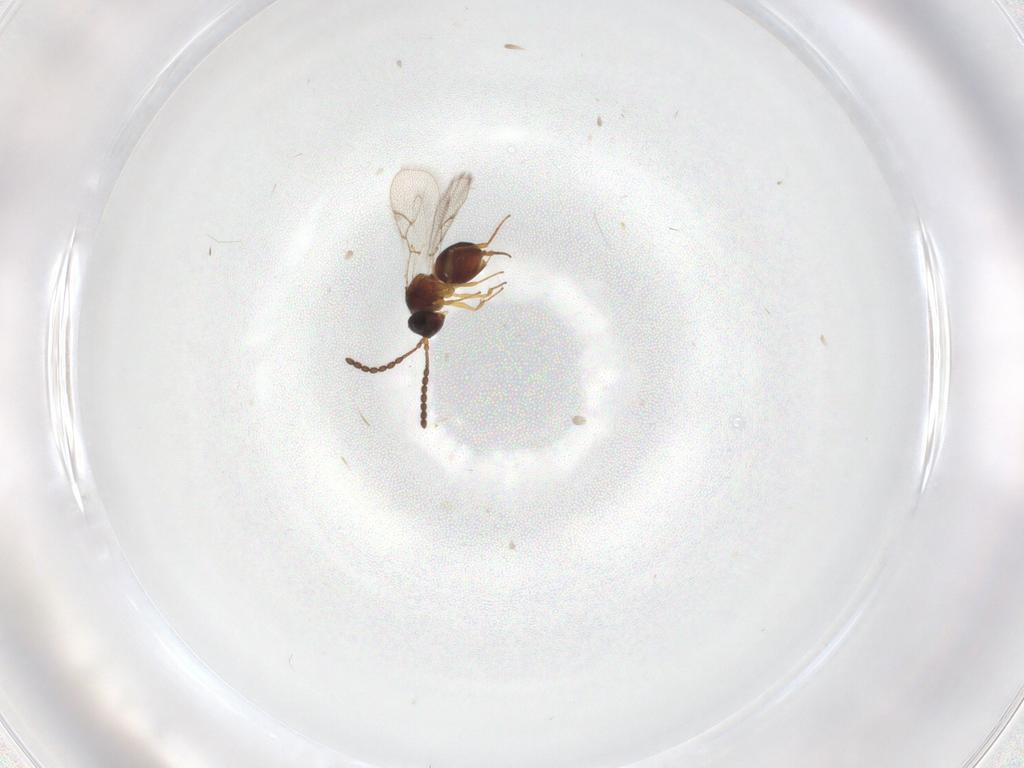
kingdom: Animalia
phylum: Arthropoda
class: Insecta
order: Hymenoptera
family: Figitidae
